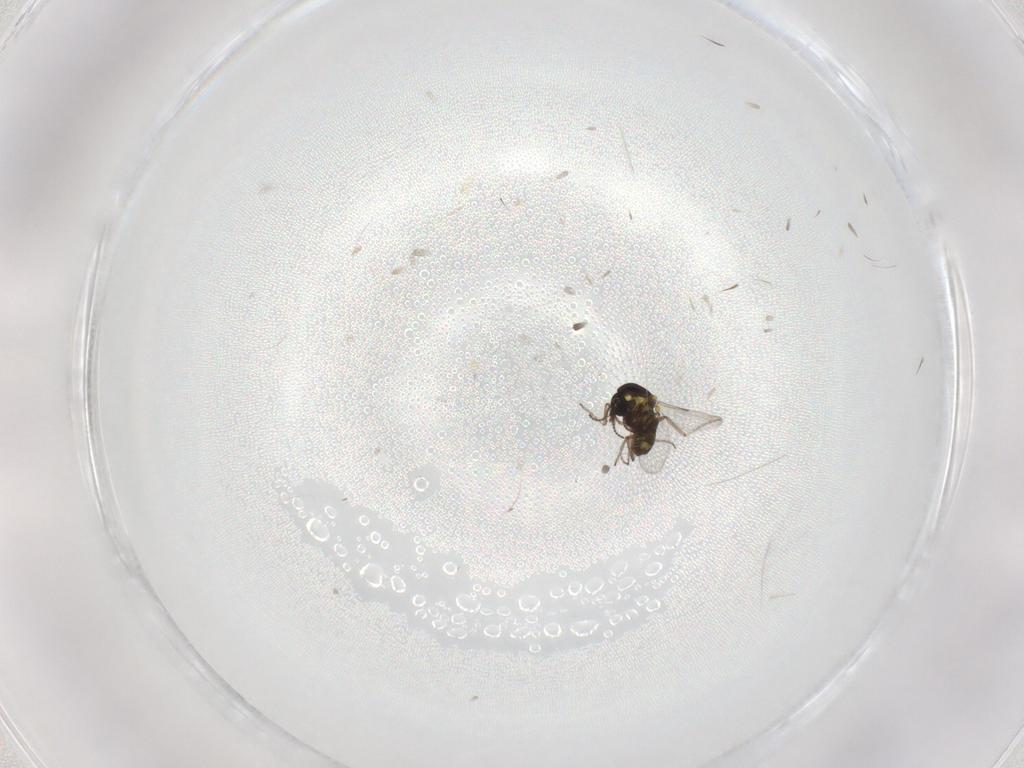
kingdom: Animalia
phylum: Arthropoda
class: Insecta
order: Diptera
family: Ceratopogonidae
